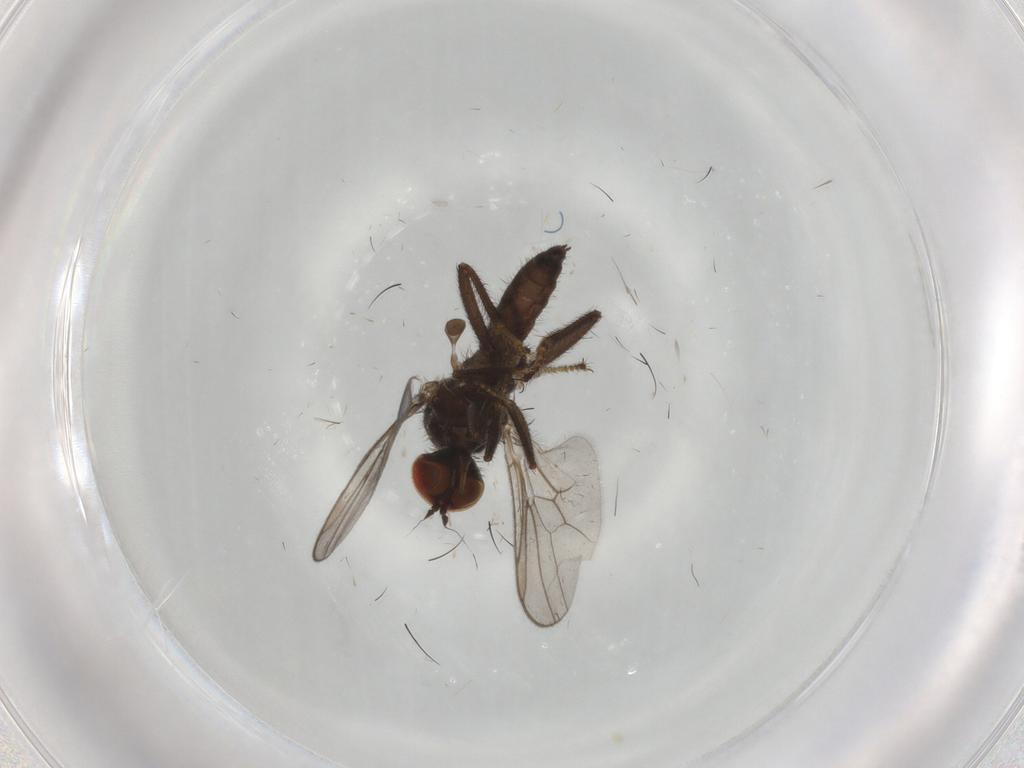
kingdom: Animalia
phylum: Arthropoda
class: Insecta
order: Diptera
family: Hybotidae
